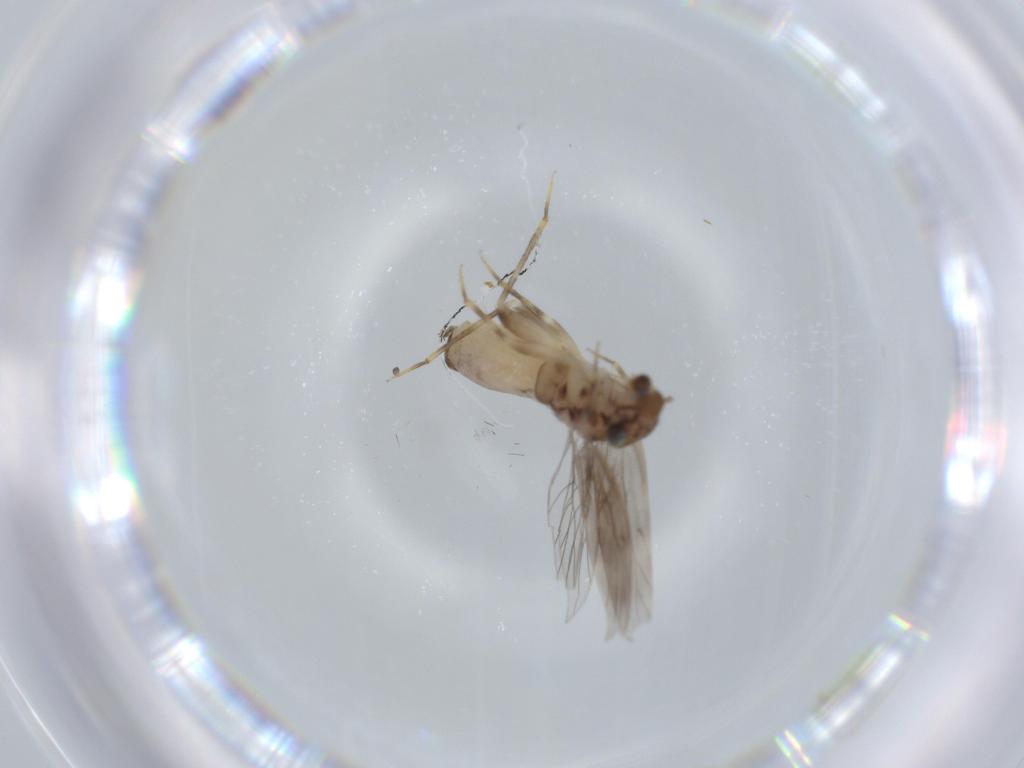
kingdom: Animalia
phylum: Arthropoda
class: Insecta
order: Psocodea
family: Lepidopsocidae
